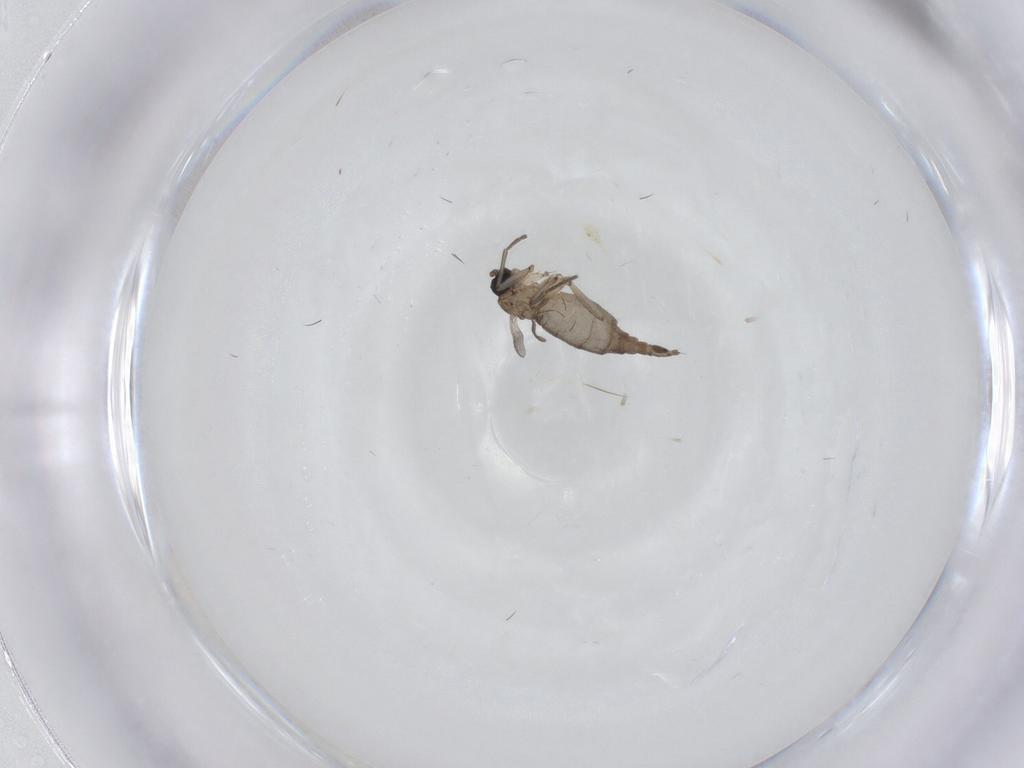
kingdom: Animalia
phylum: Arthropoda
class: Insecta
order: Diptera
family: Sciaridae
